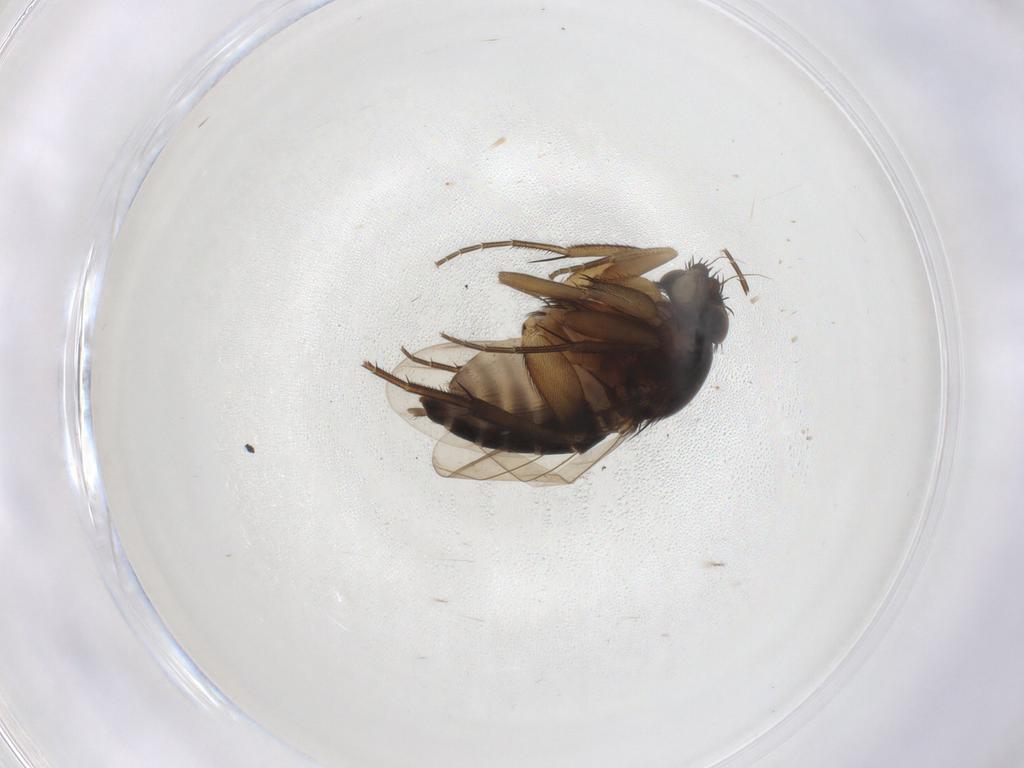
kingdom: Animalia
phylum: Arthropoda
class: Insecta
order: Diptera
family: Phoridae
